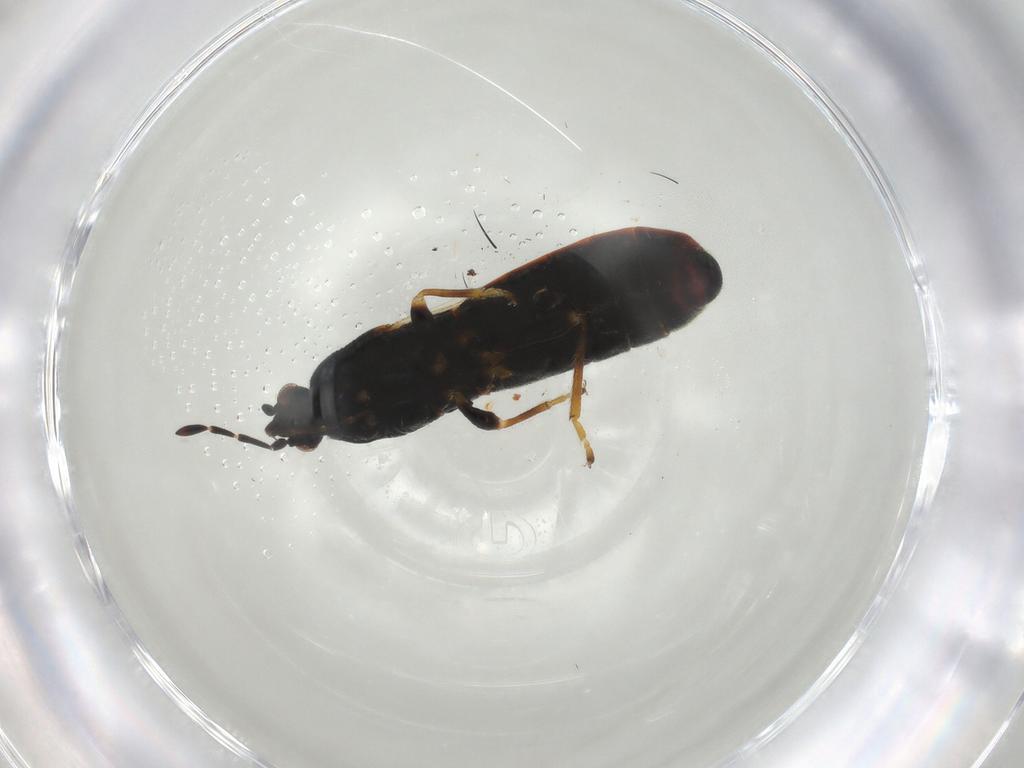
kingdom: Animalia
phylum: Arthropoda
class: Insecta
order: Hemiptera
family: Blissidae
